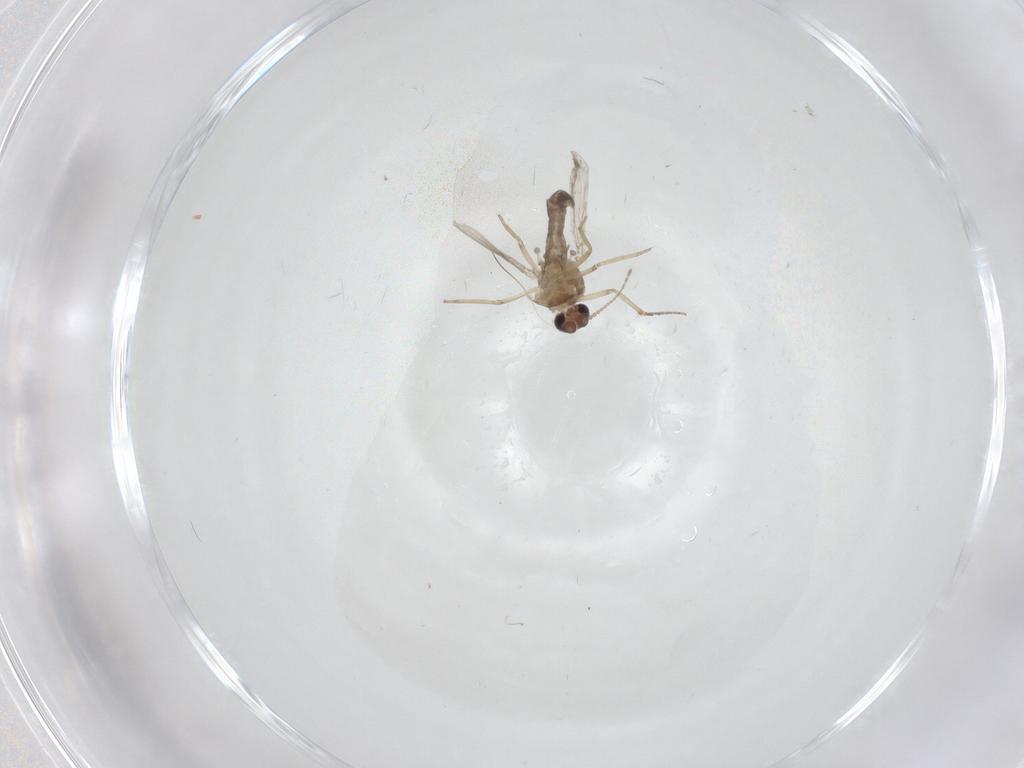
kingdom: Animalia
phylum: Arthropoda
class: Insecta
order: Diptera
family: Ceratopogonidae
